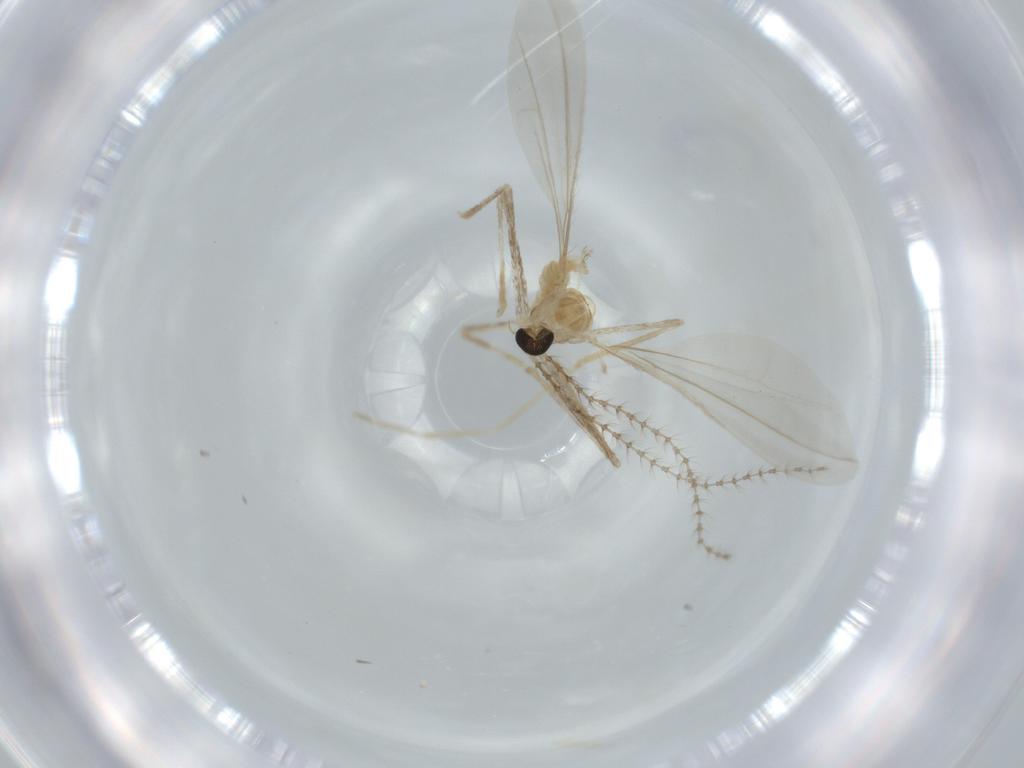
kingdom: Animalia
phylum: Arthropoda
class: Insecta
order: Diptera
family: Cecidomyiidae
